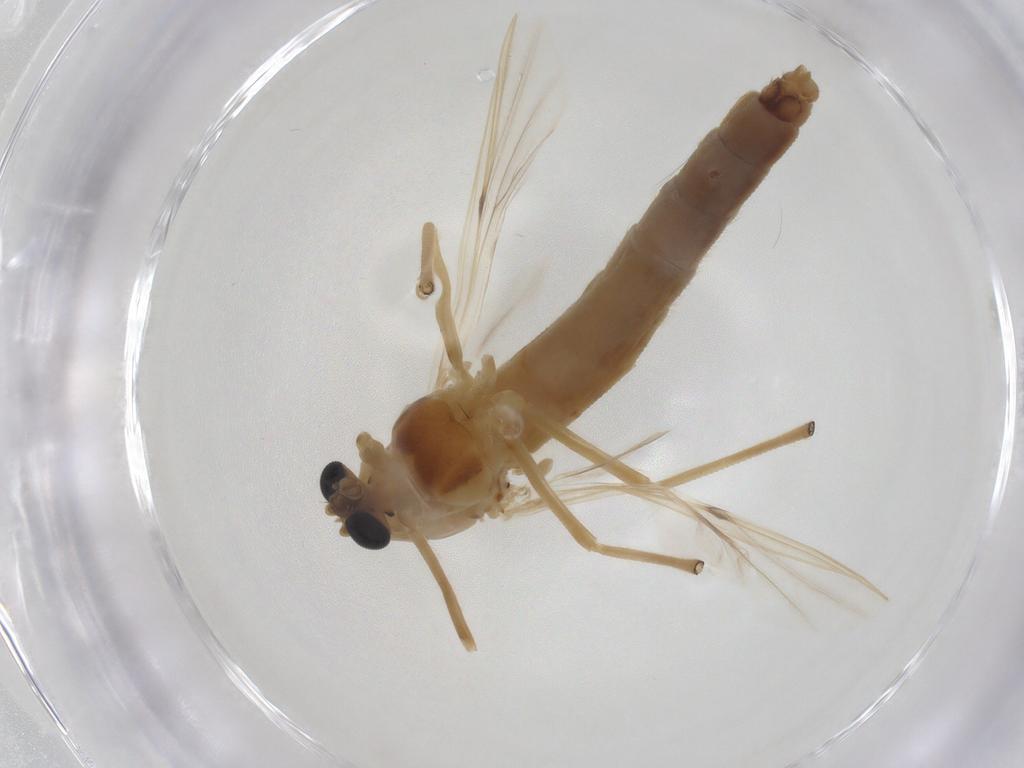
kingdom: Animalia
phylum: Arthropoda
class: Insecta
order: Diptera
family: Chironomidae
